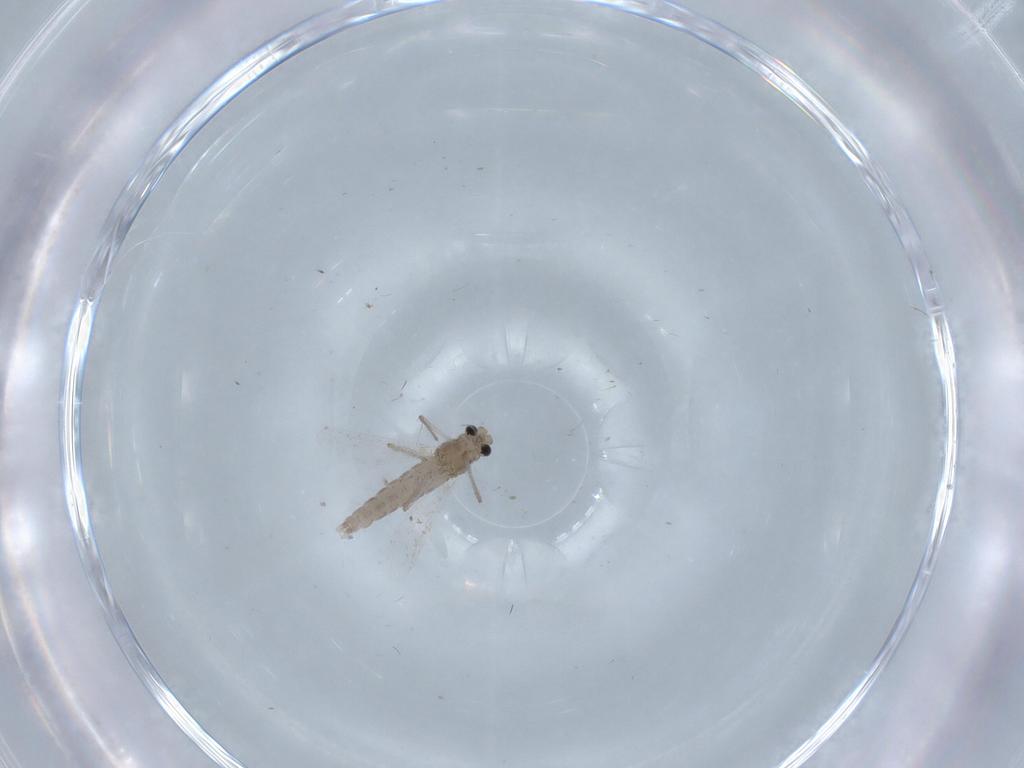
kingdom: Animalia
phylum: Arthropoda
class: Insecta
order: Diptera
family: Chironomidae
